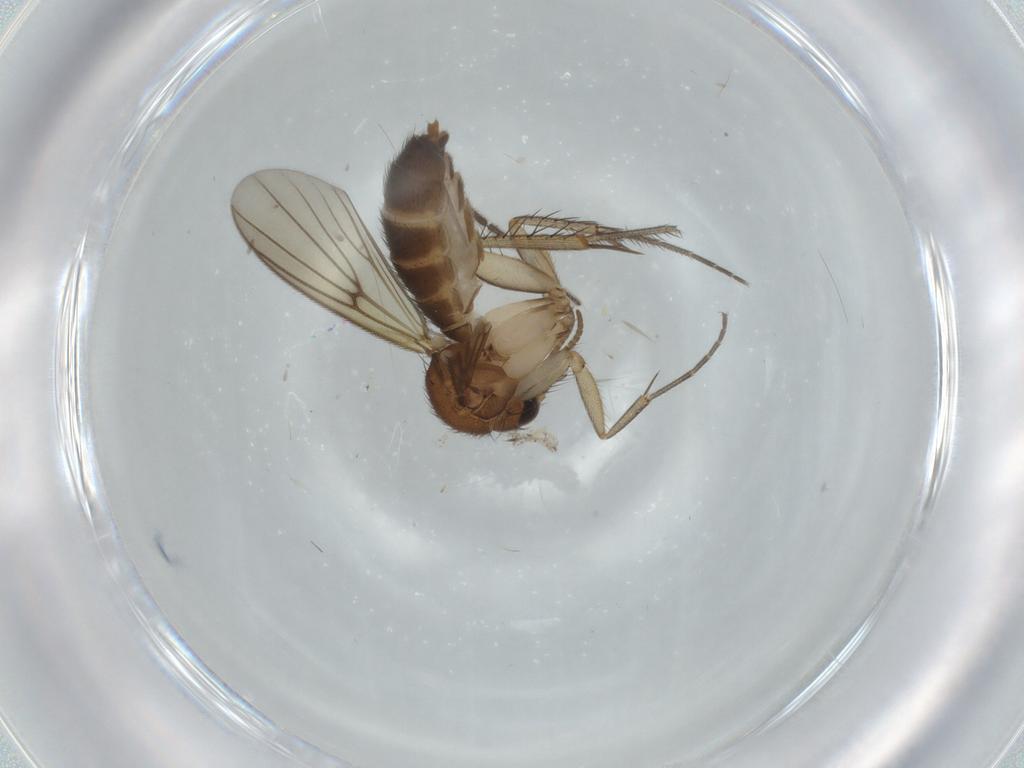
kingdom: Animalia
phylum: Arthropoda
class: Insecta
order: Diptera
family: Mycetophilidae
